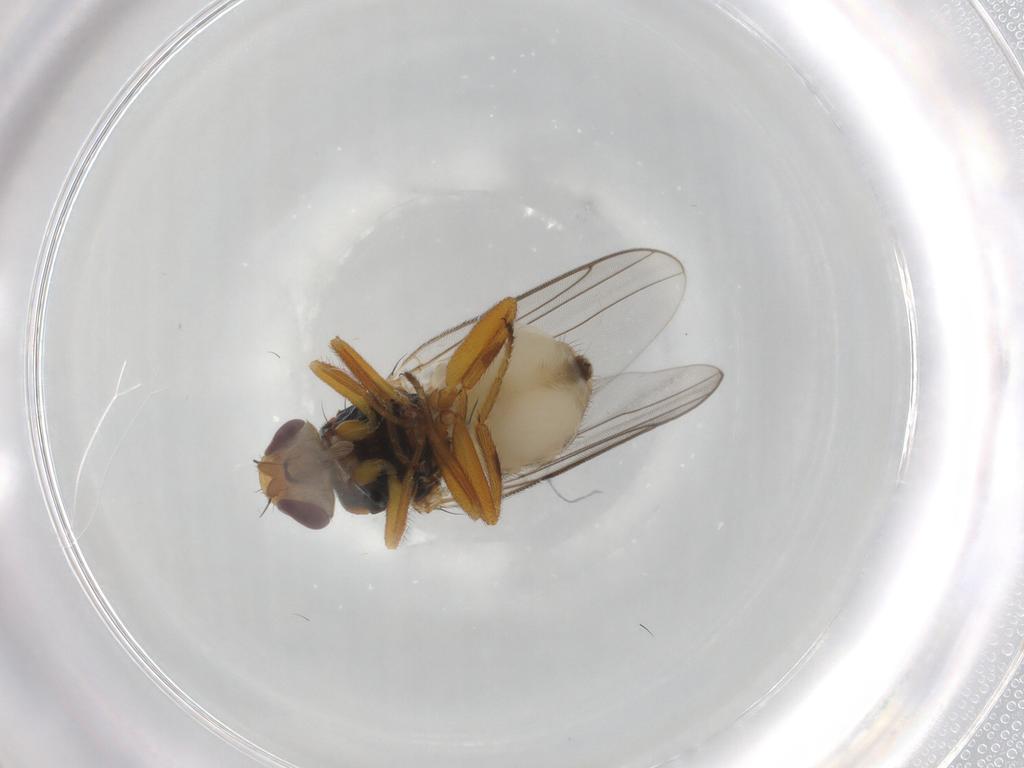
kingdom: Animalia
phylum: Arthropoda
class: Insecta
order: Diptera
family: Chloropidae
